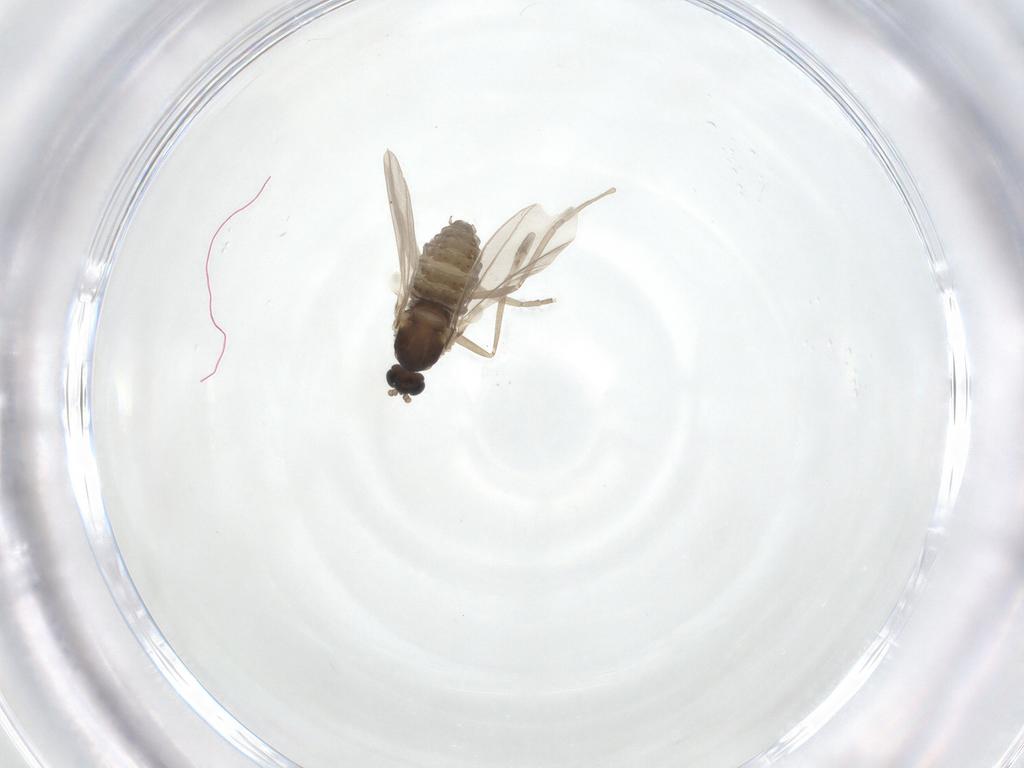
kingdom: Animalia
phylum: Arthropoda
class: Insecta
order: Diptera
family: Cecidomyiidae
